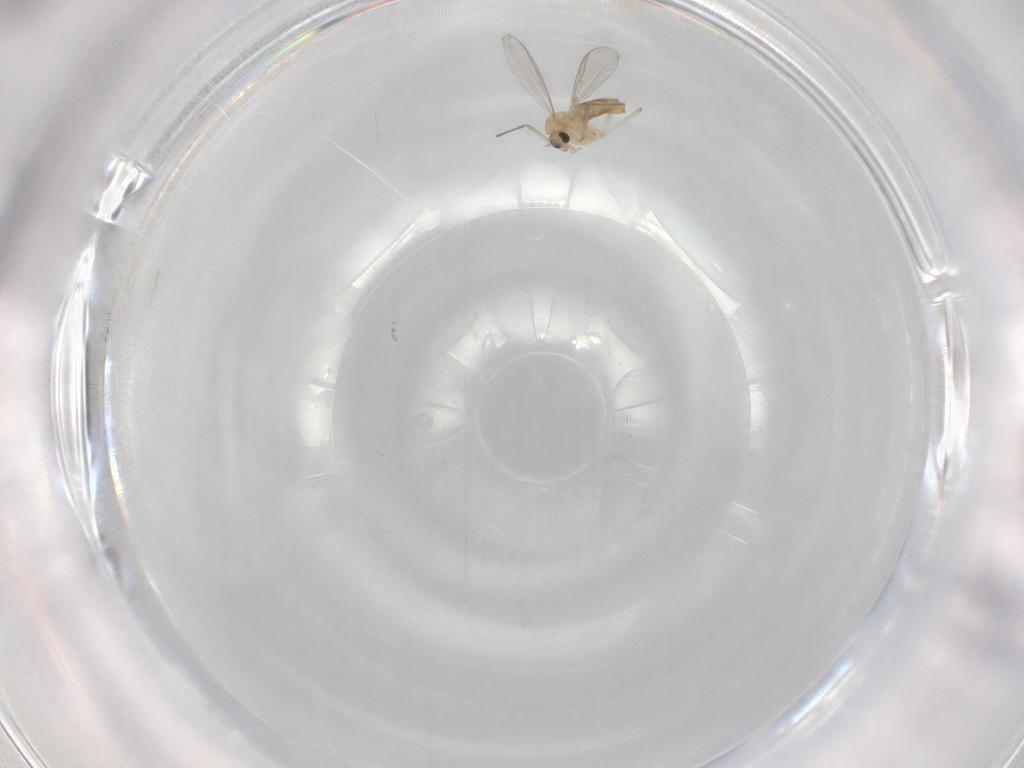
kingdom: Animalia
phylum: Arthropoda
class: Insecta
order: Diptera
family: Chironomidae
